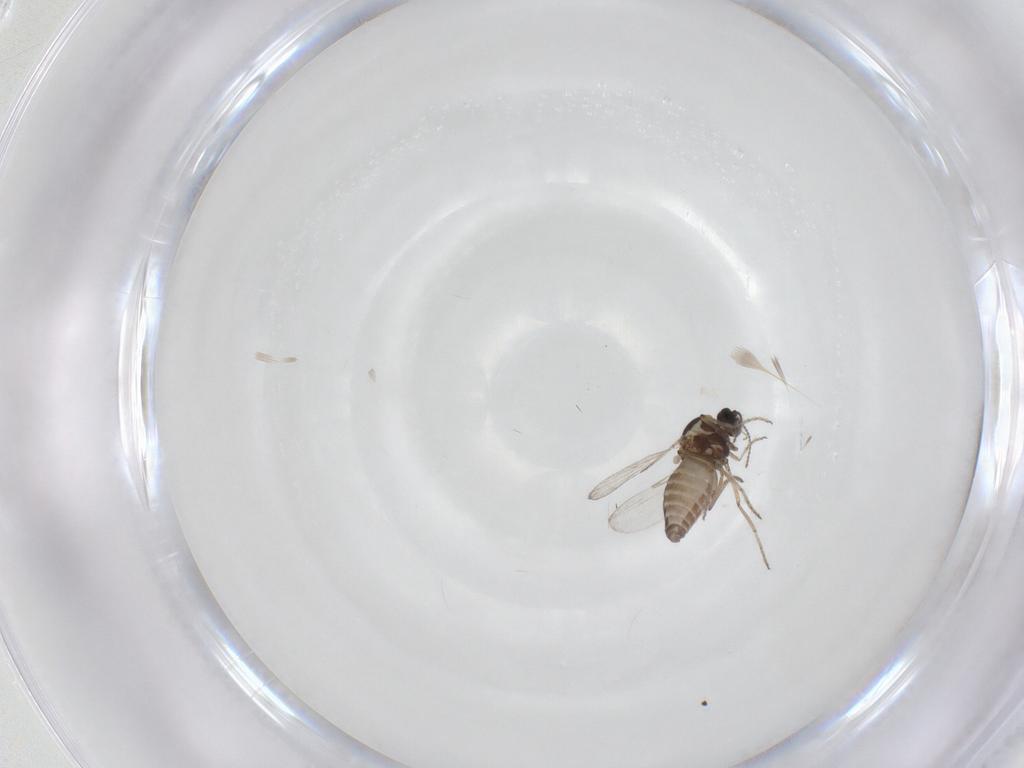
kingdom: Animalia
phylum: Arthropoda
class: Insecta
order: Diptera
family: Ceratopogonidae
